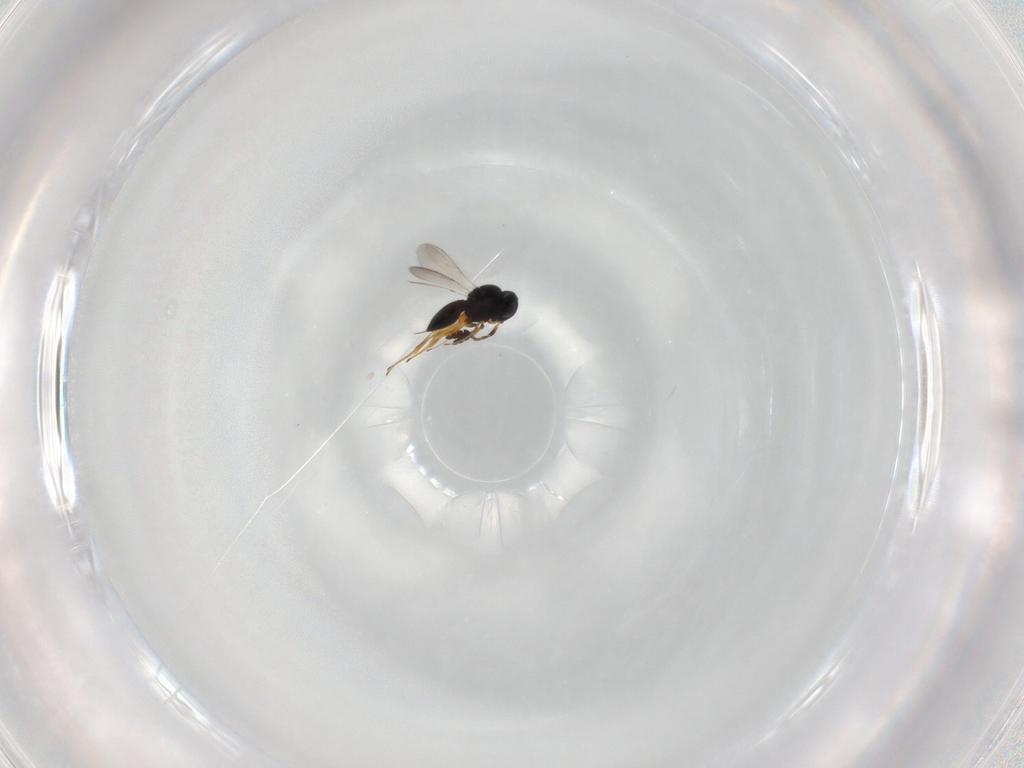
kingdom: Animalia
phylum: Arthropoda
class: Insecta
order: Hymenoptera
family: Scelionidae
